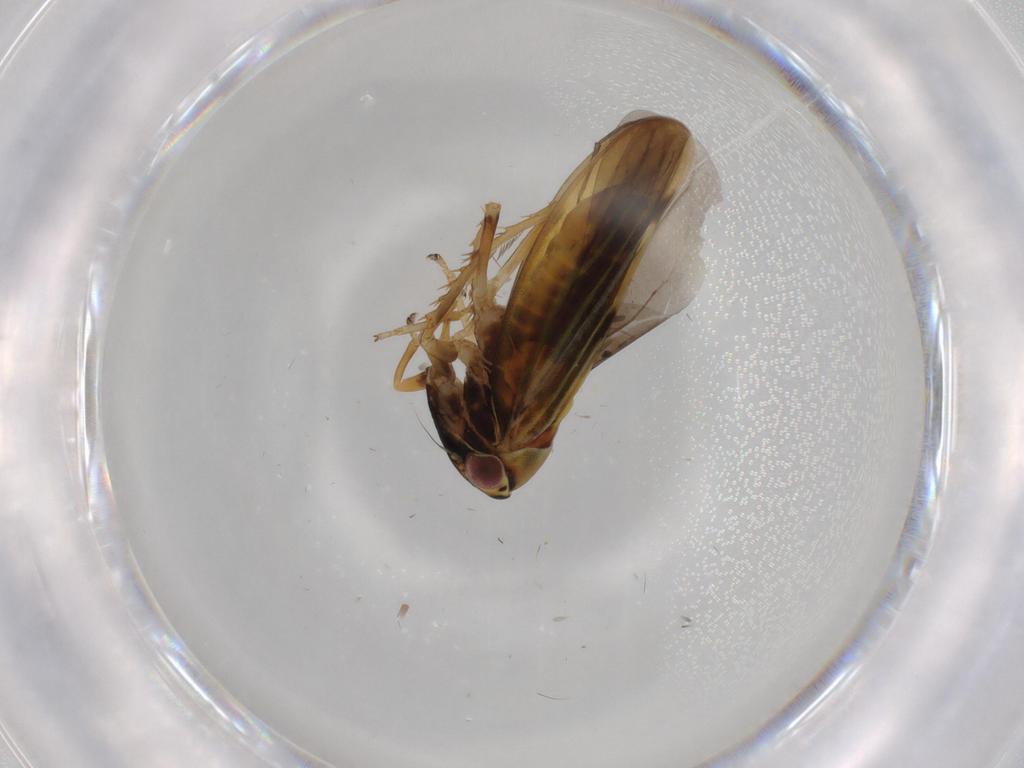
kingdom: Animalia
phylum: Arthropoda
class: Insecta
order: Hemiptera
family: Cicadellidae
